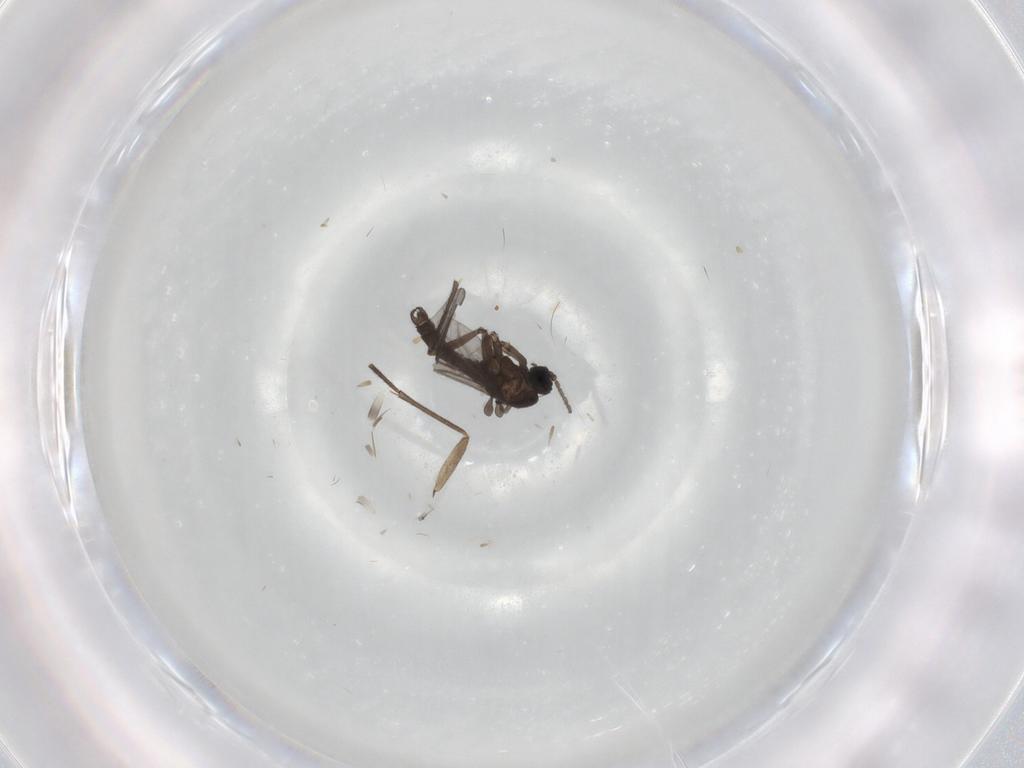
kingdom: Animalia
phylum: Arthropoda
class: Insecta
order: Diptera
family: Sciaridae
